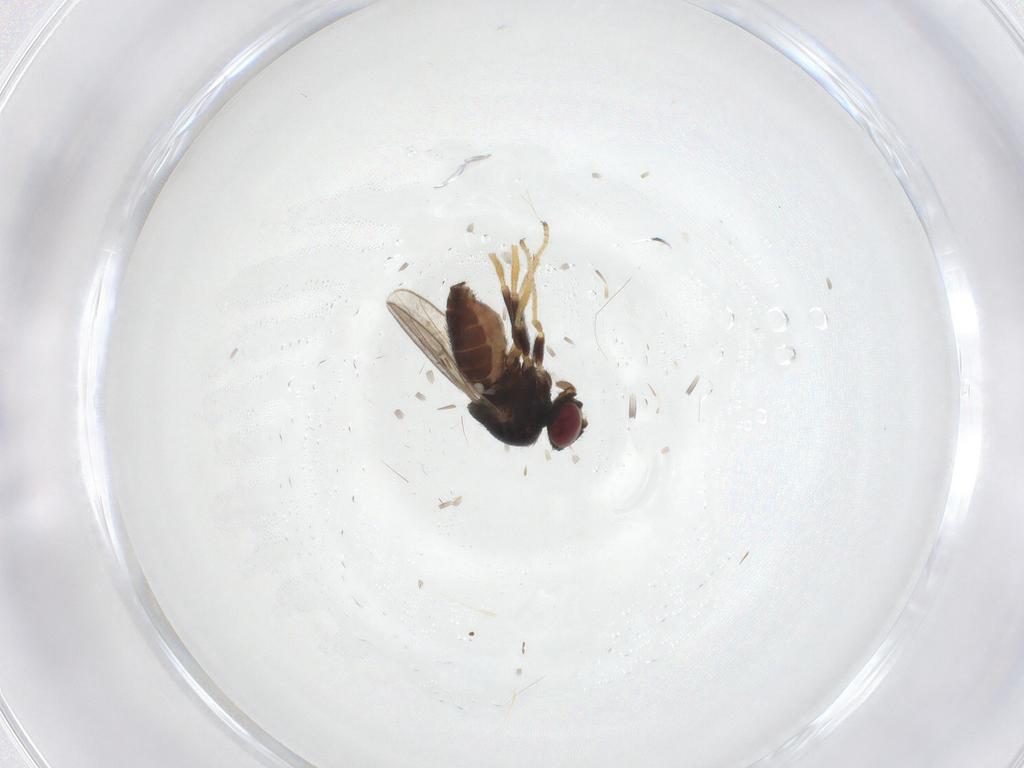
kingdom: Animalia
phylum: Arthropoda
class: Insecta
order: Diptera
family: Chloropidae
